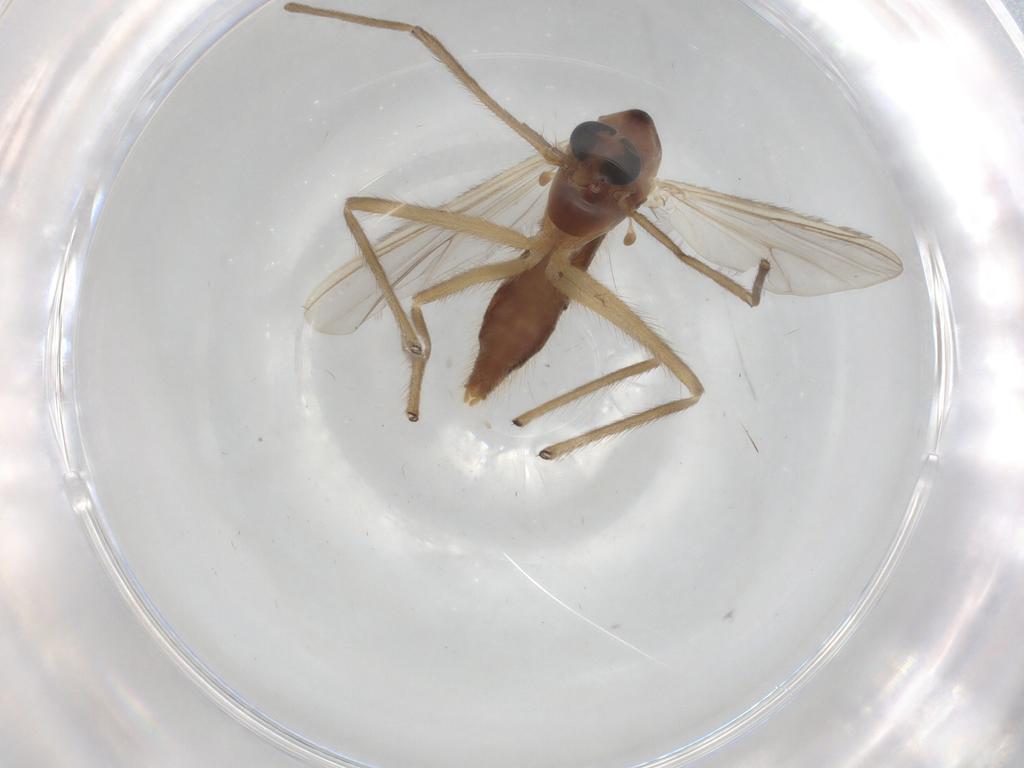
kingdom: Animalia
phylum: Arthropoda
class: Insecta
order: Diptera
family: Chironomidae
